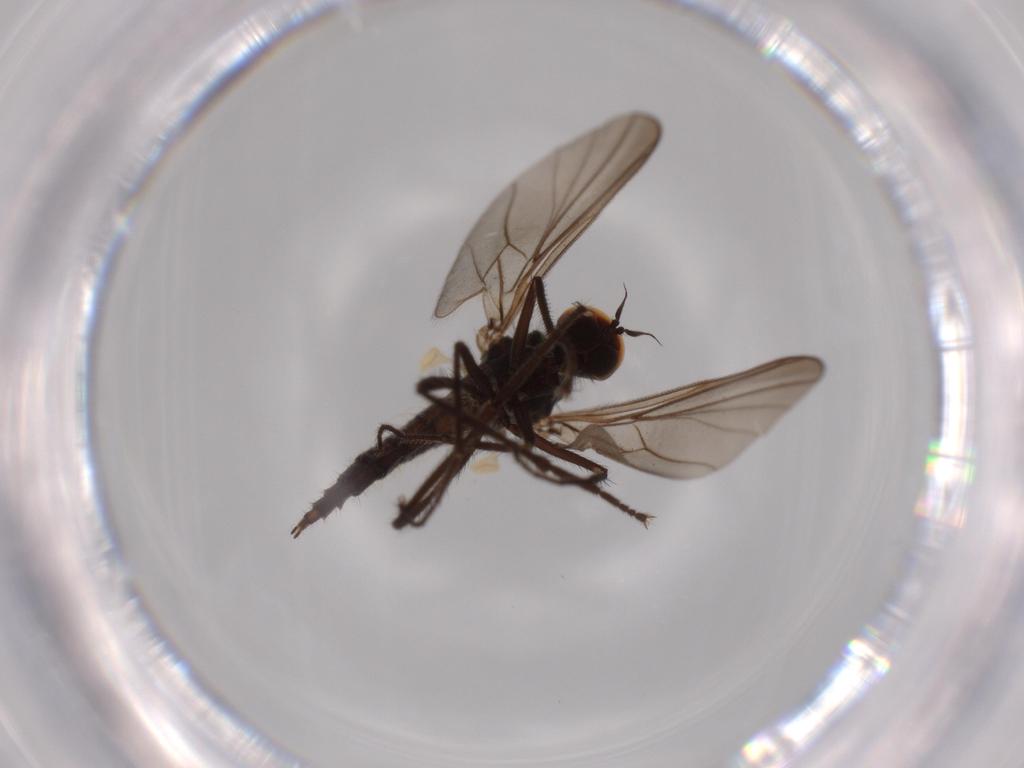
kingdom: Animalia
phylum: Arthropoda
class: Insecta
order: Diptera
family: Hybotidae
